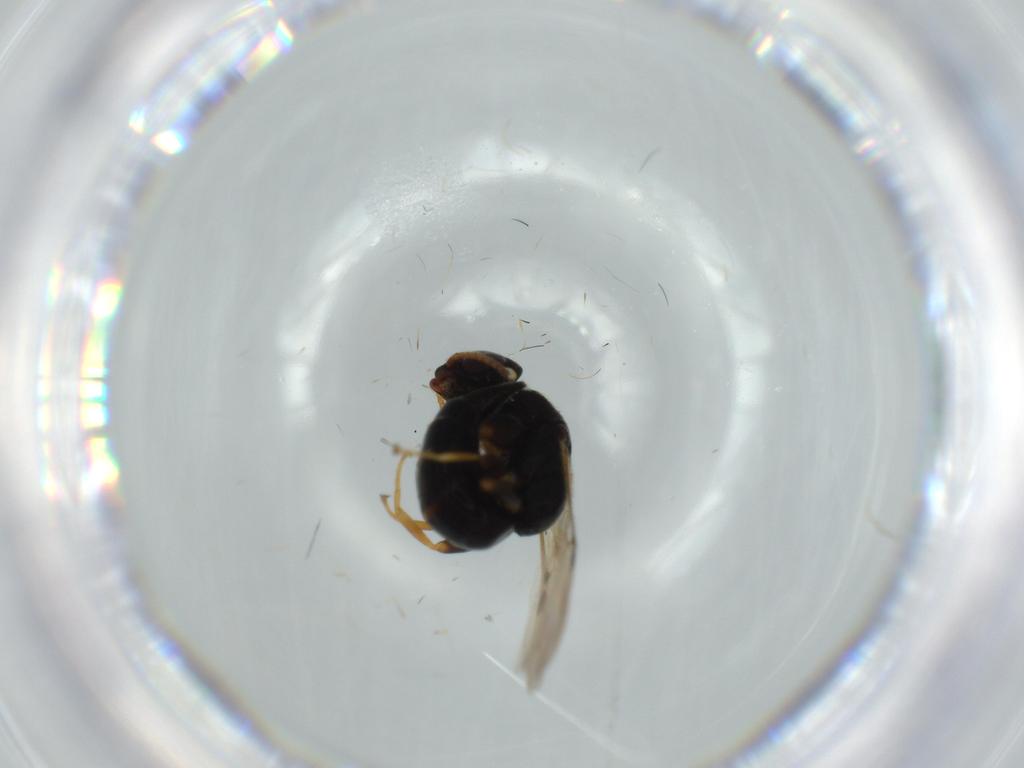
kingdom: Animalia
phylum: Arthropoda
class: Insecta
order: Hymenoptera
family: Bethylidae
